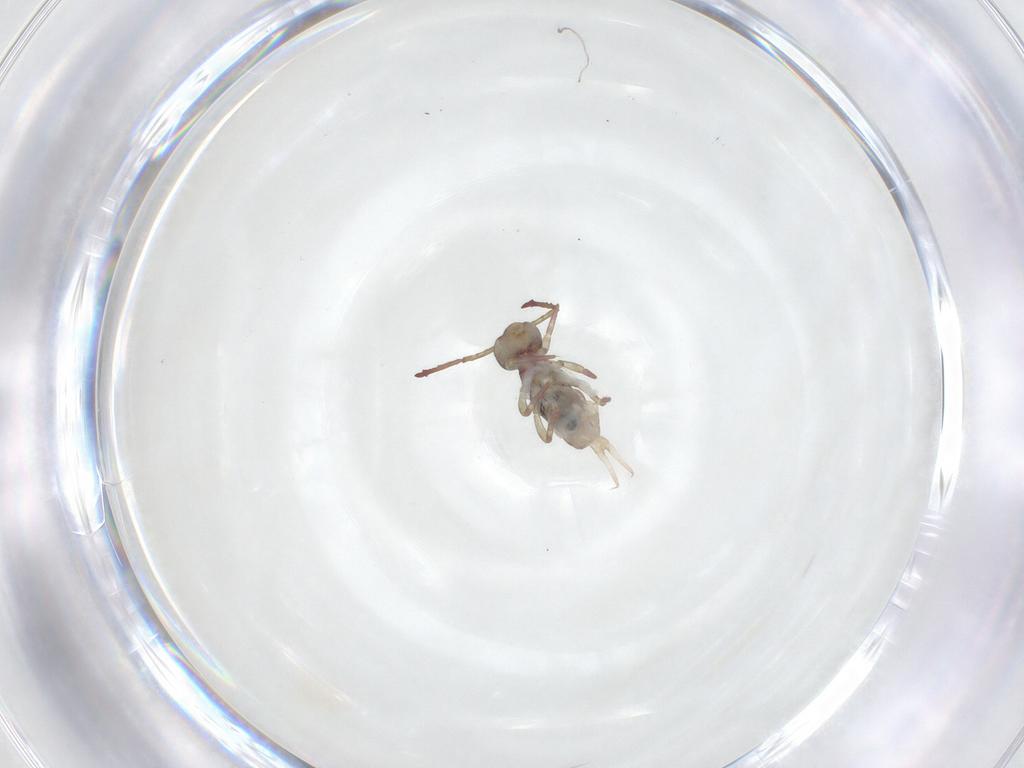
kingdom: Animalia
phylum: Arthropoda
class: Collembola
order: Symphypleona
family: Dicyrtomidae
